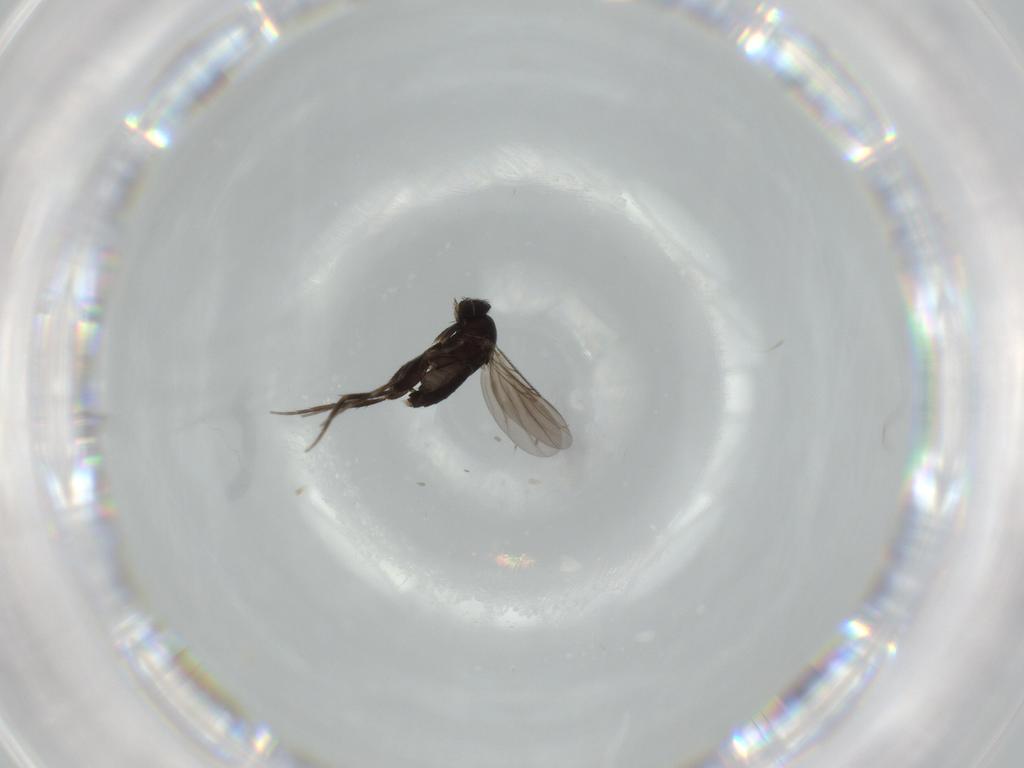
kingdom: Animalia
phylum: Arthropoda
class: Insecta
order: Diptera
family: Phoridae
